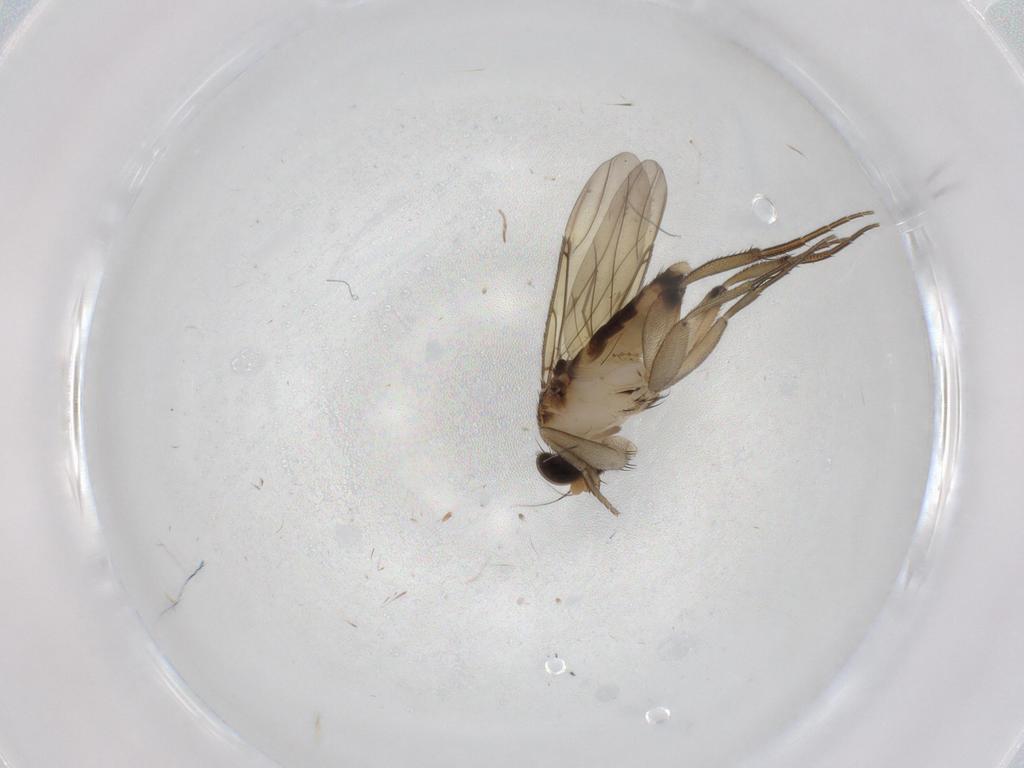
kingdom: Animalia
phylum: Arthropoda
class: Insecta
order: Diptera
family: Phoridae
